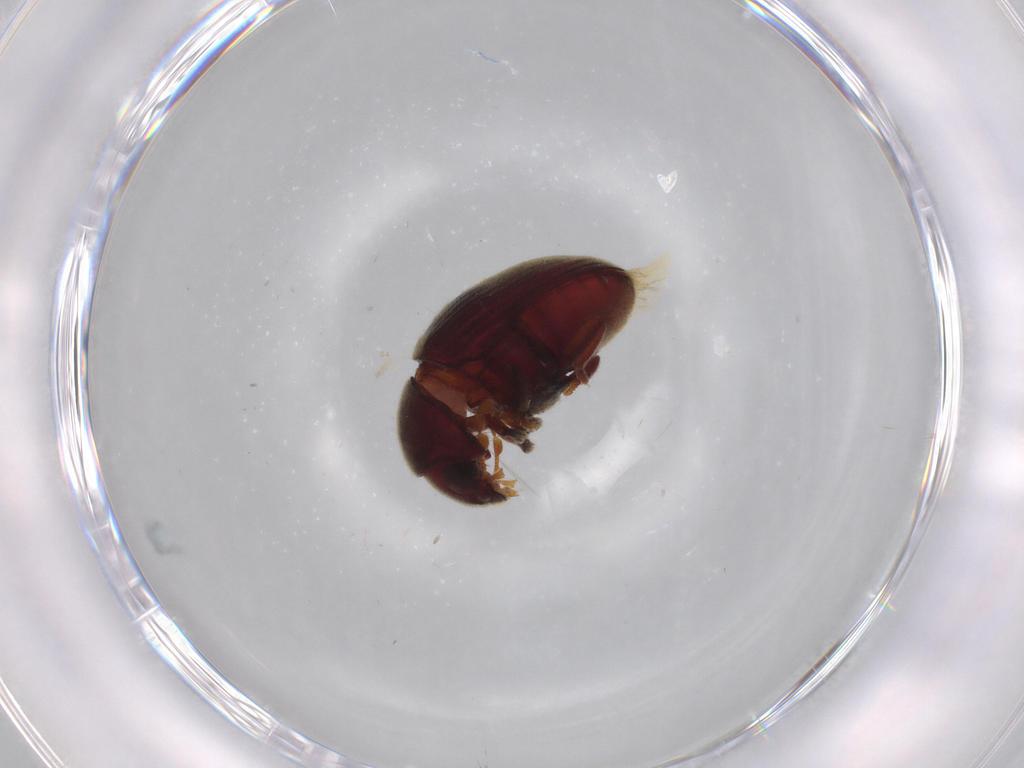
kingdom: Animalia
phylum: Arthropoda
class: Insecta
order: Coleoptera
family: Ptinidae
